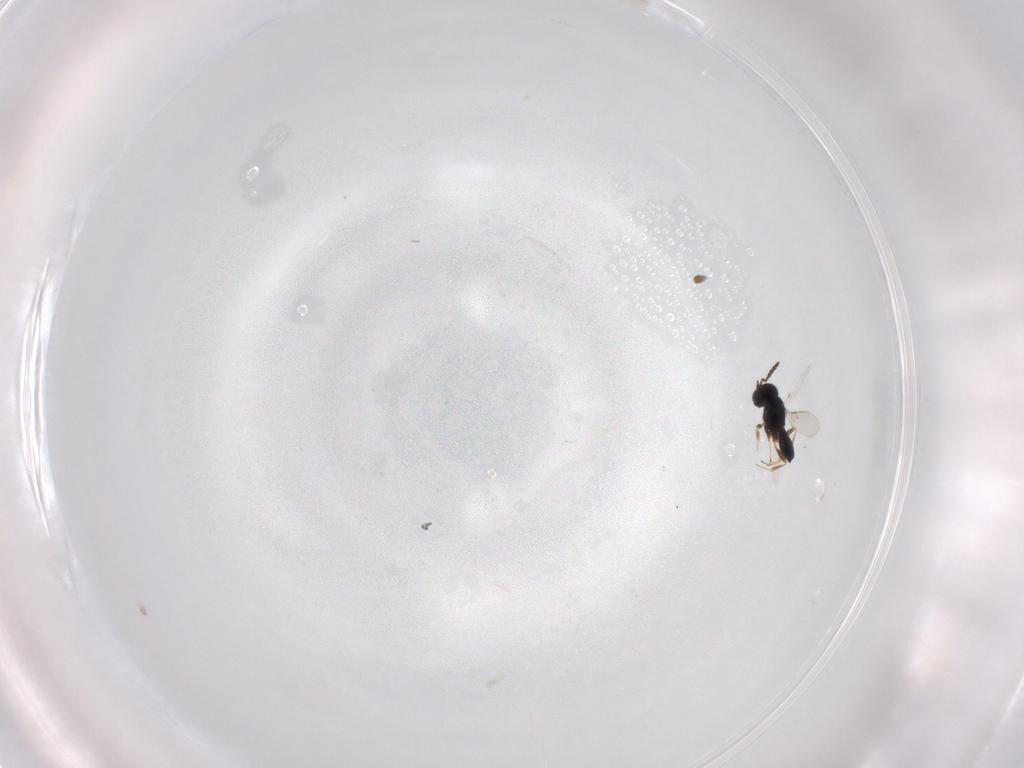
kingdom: Animalia
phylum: Arthropoda
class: Insecta
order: Hymenoptera
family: Scelionidae
